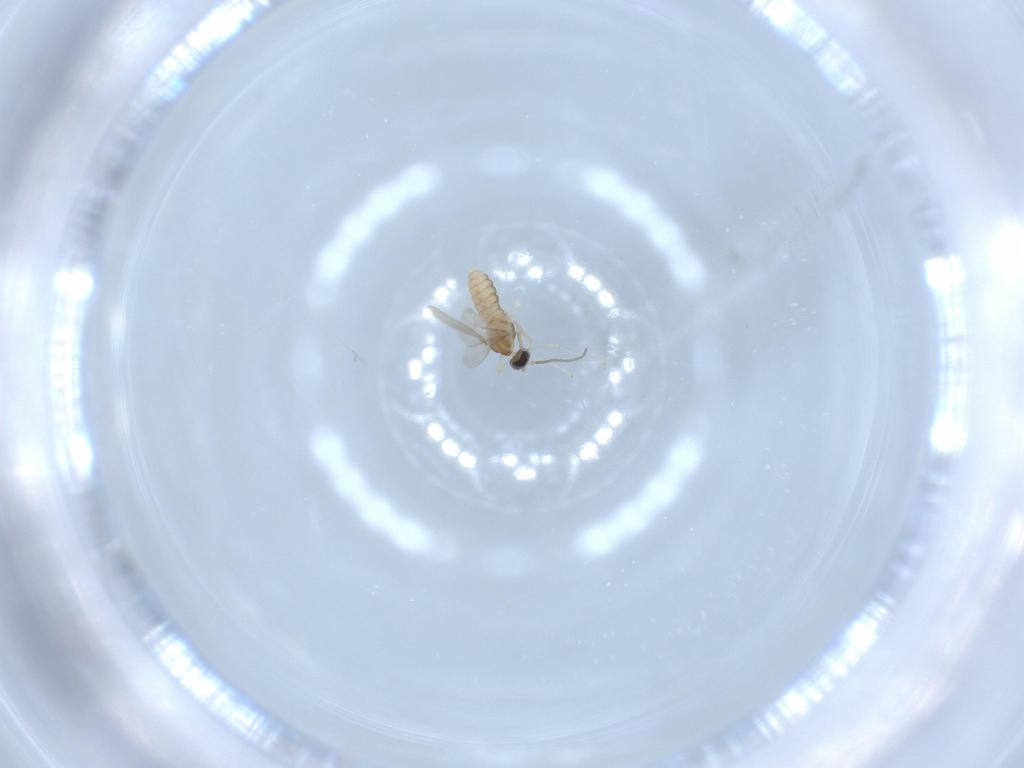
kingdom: Animalia
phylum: Arthropoda
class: Insecta
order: Diptera
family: Cecidomyiidae
